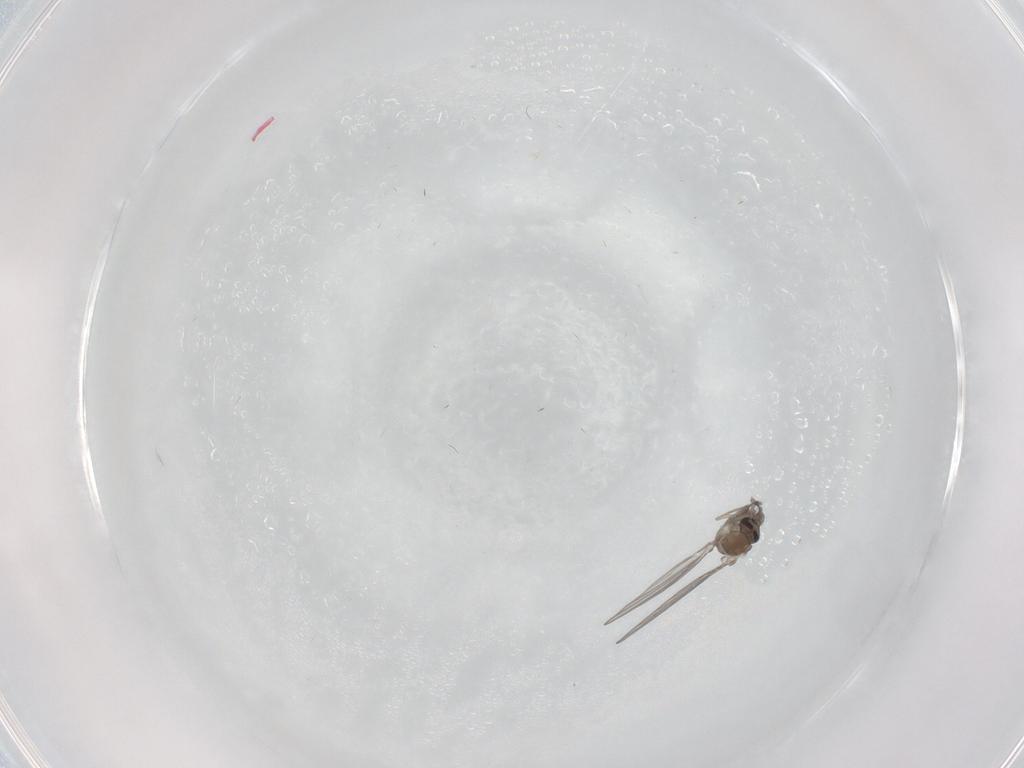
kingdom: Animalia
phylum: Arthropoda
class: Insecta
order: Diptera
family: Psychodidae
